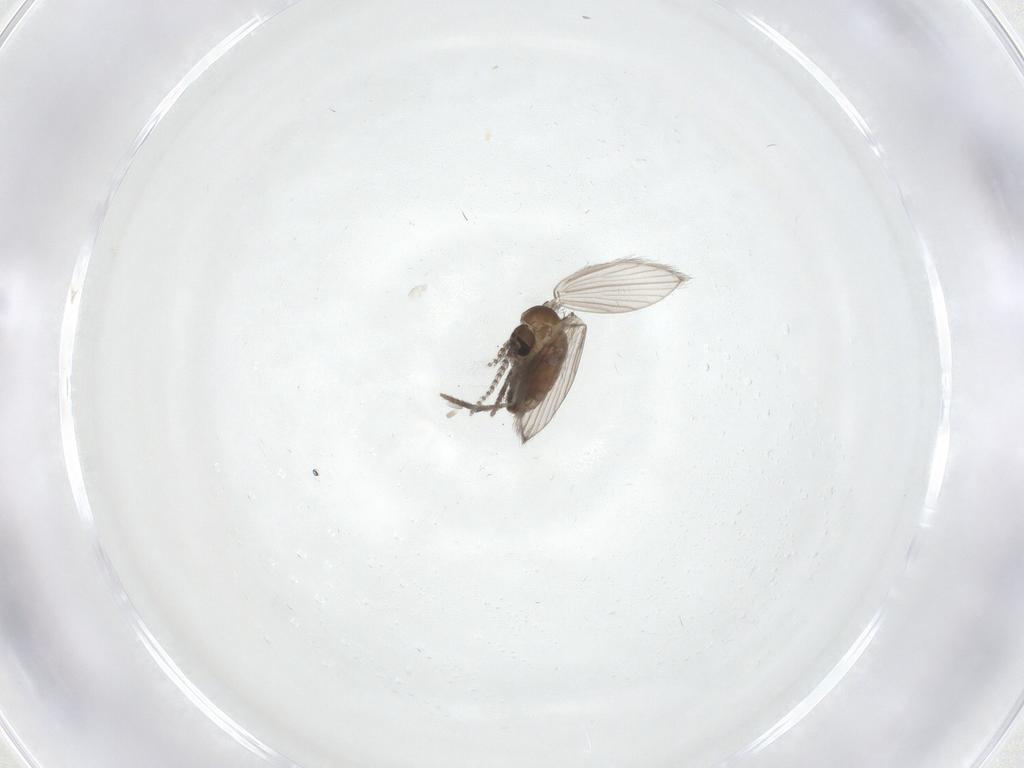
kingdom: Animalia
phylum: Arthropoda
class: Insecta
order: Diptera
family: Psychodidae
